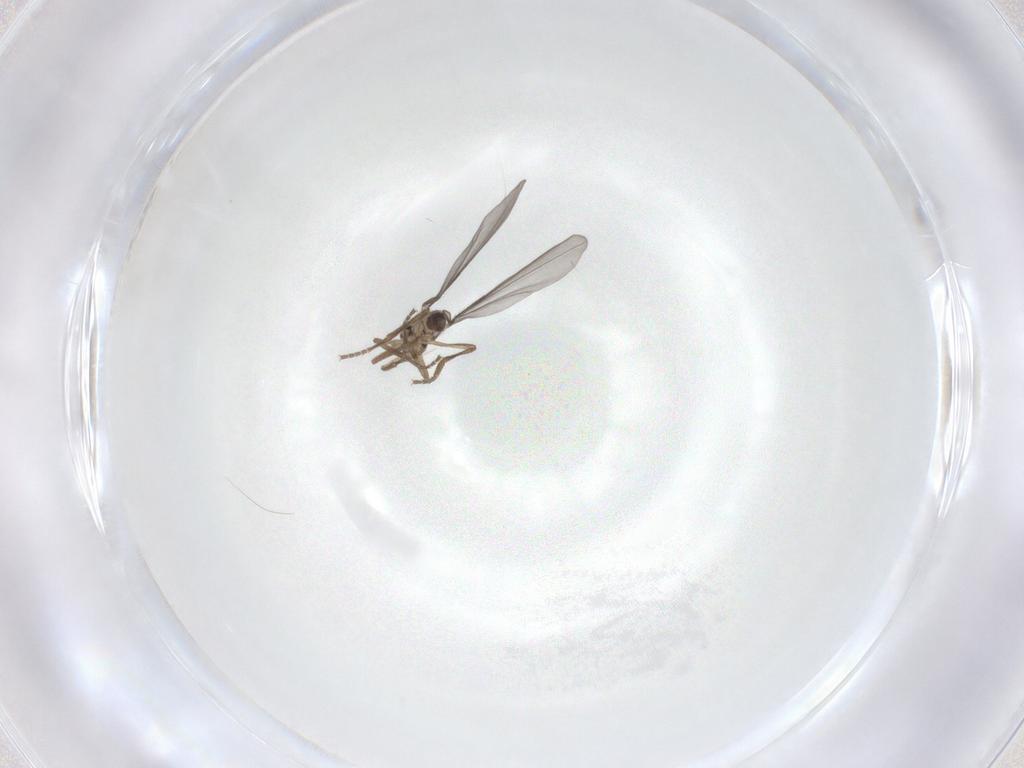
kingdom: Animalia
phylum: Arthropoda
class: Insecta
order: Diptera
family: Phoridae
